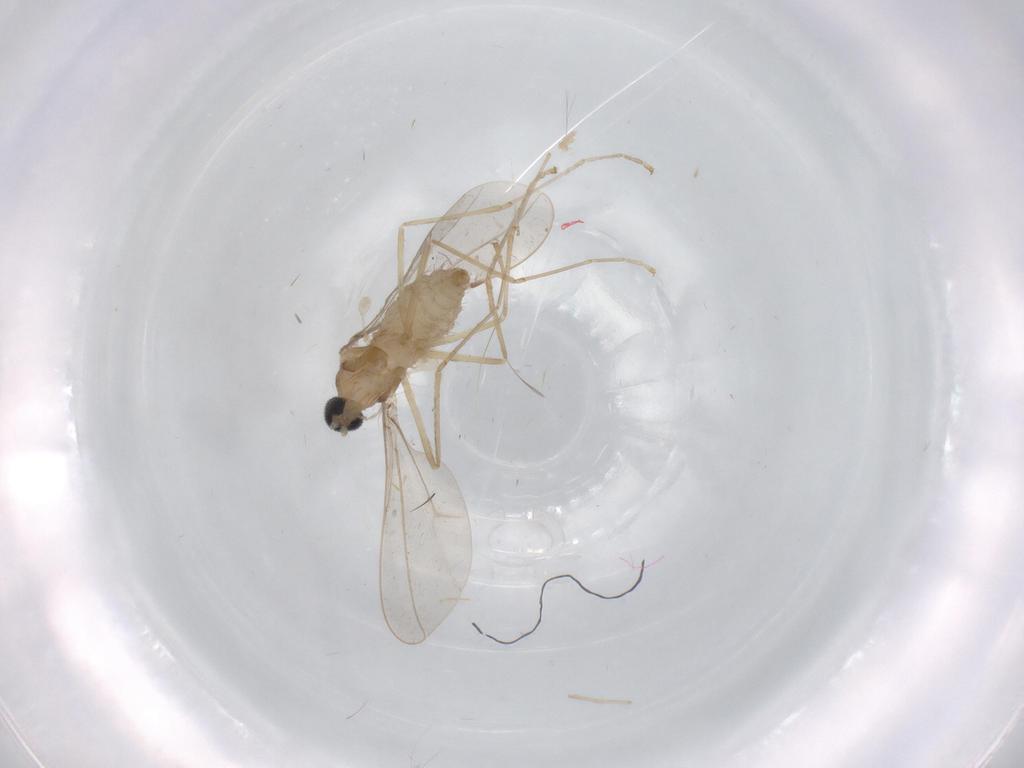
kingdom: Animalia
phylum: Arthropoda
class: Insecta
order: Diptera
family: Cecidomyiidae
